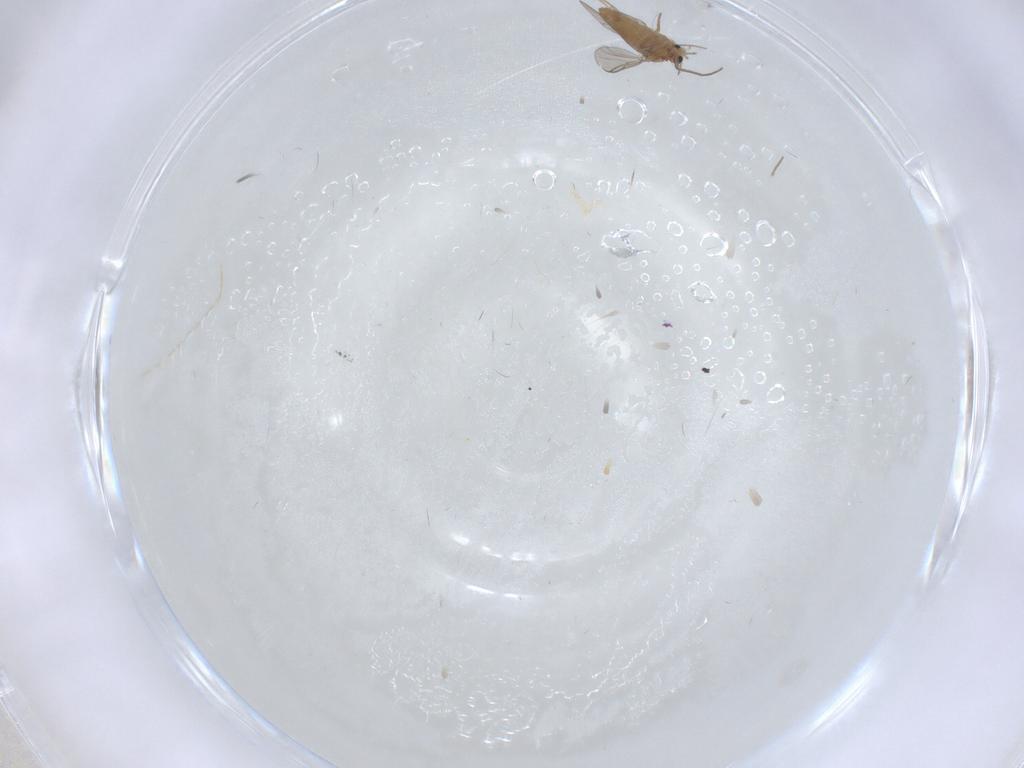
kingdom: Animalia
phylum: Arthropoda
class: Insecta
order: Diptera
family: Chironomidae
